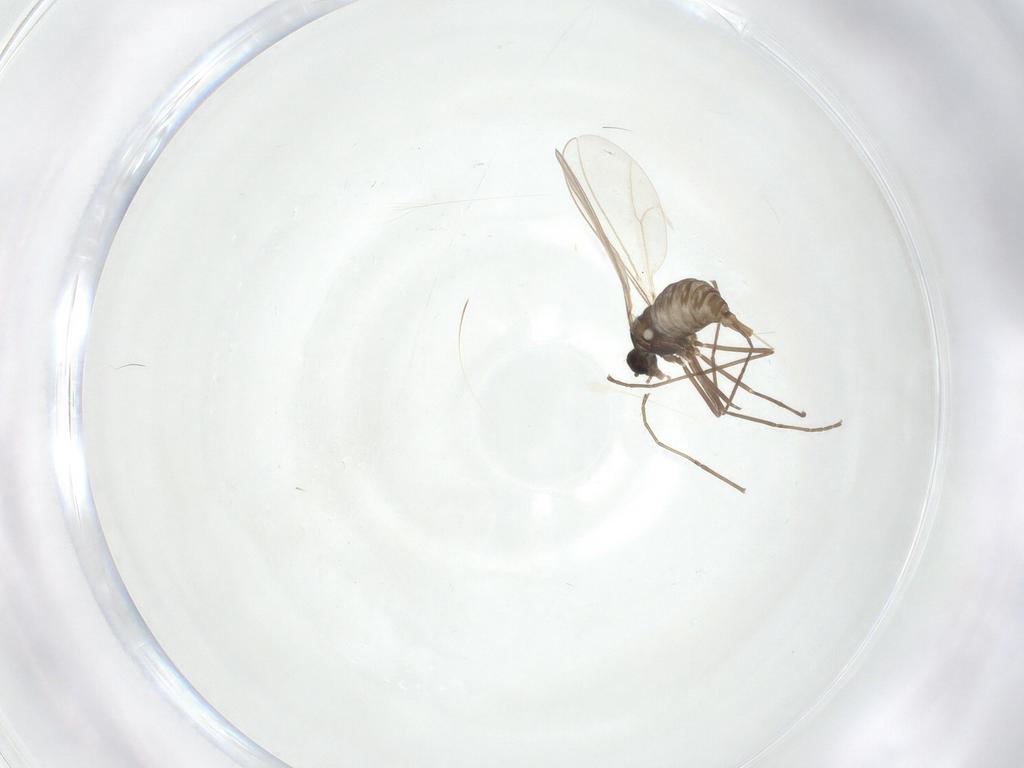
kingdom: Animalia
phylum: Arthropoda
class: Insecta
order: Diptera
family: Cecidomyiidae
